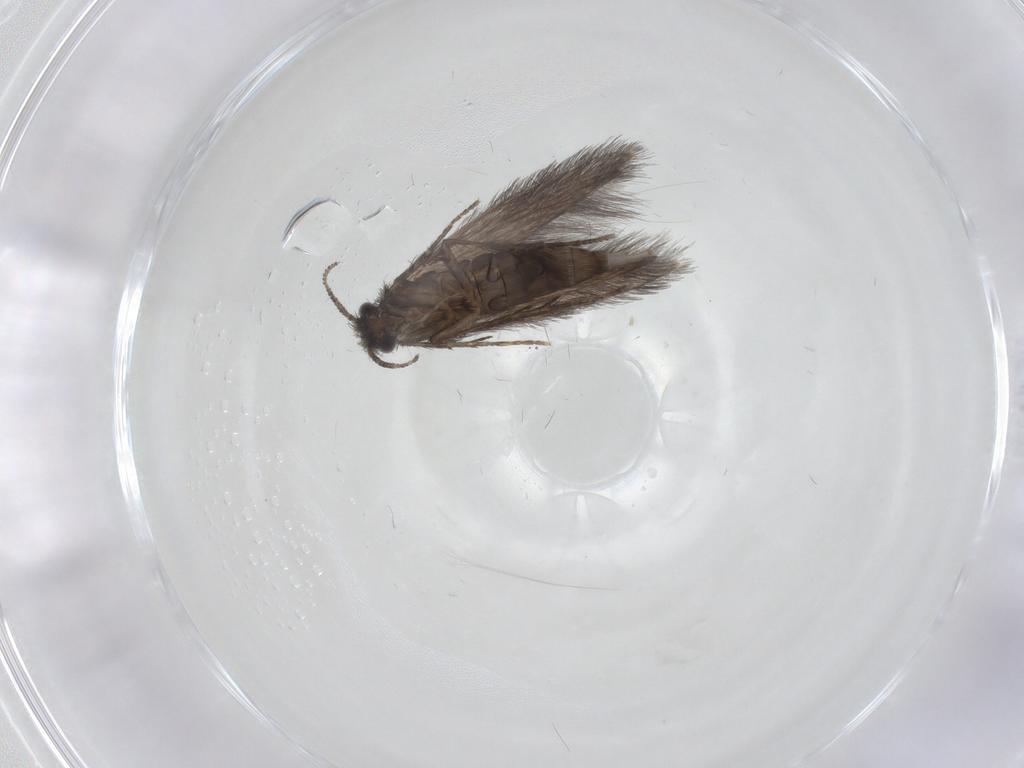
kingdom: Animalia
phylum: Arthropoda
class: Insecta
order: Trichoptera
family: Hydroptilidae
